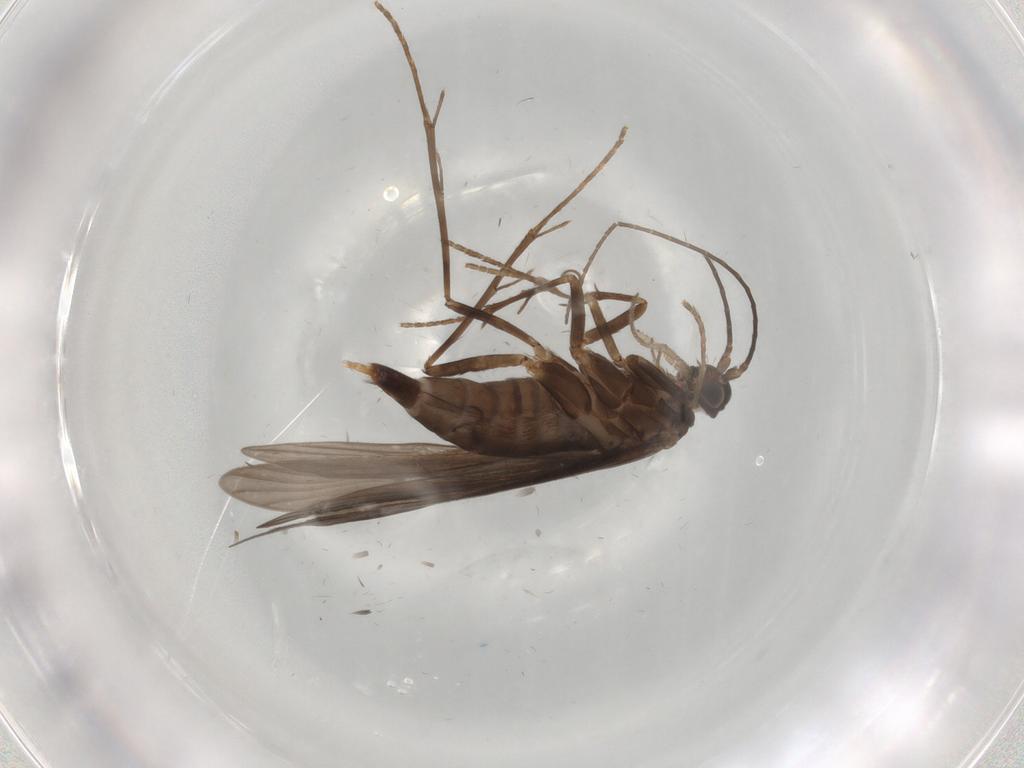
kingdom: Animalia
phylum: Arthropoda
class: Insecta
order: Trichoptera
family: Xiphocentronidae
